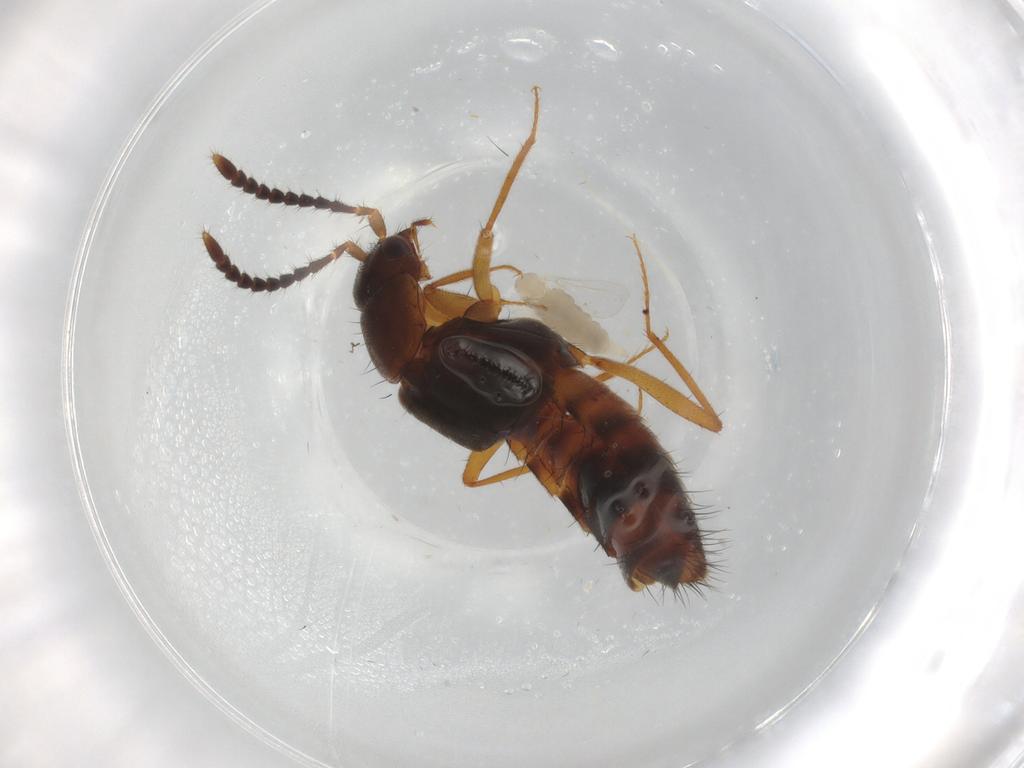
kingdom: Animalia
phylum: Arthropoda
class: Insecta
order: Coleoptera
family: Staphylinidae
